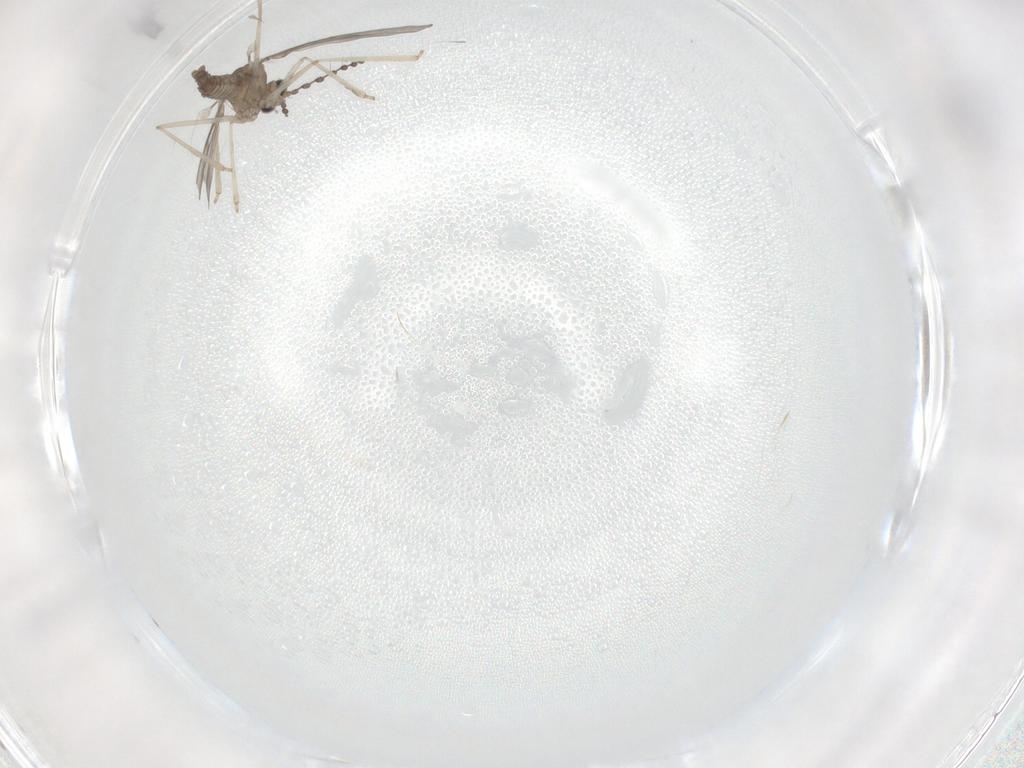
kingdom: Animalia
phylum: Arthropoda
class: Insecta
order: Diptera
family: Cecidomyiidae
